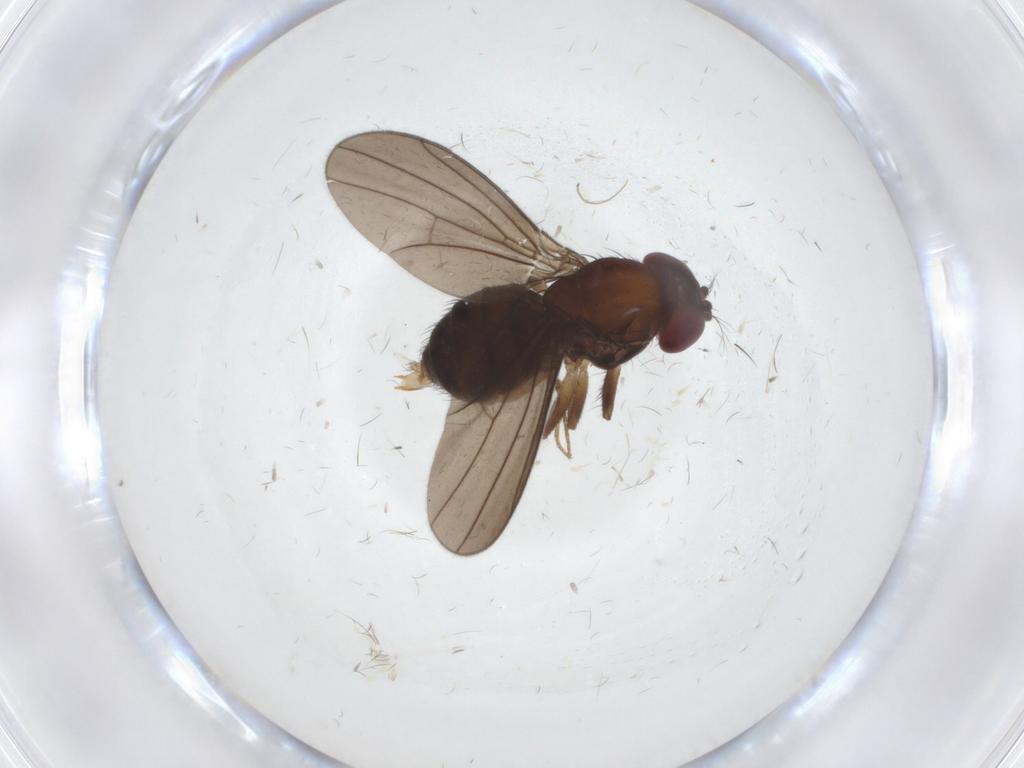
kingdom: Animalia
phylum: Arthropoda
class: Insecta
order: Diptera
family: Drosophilidae
